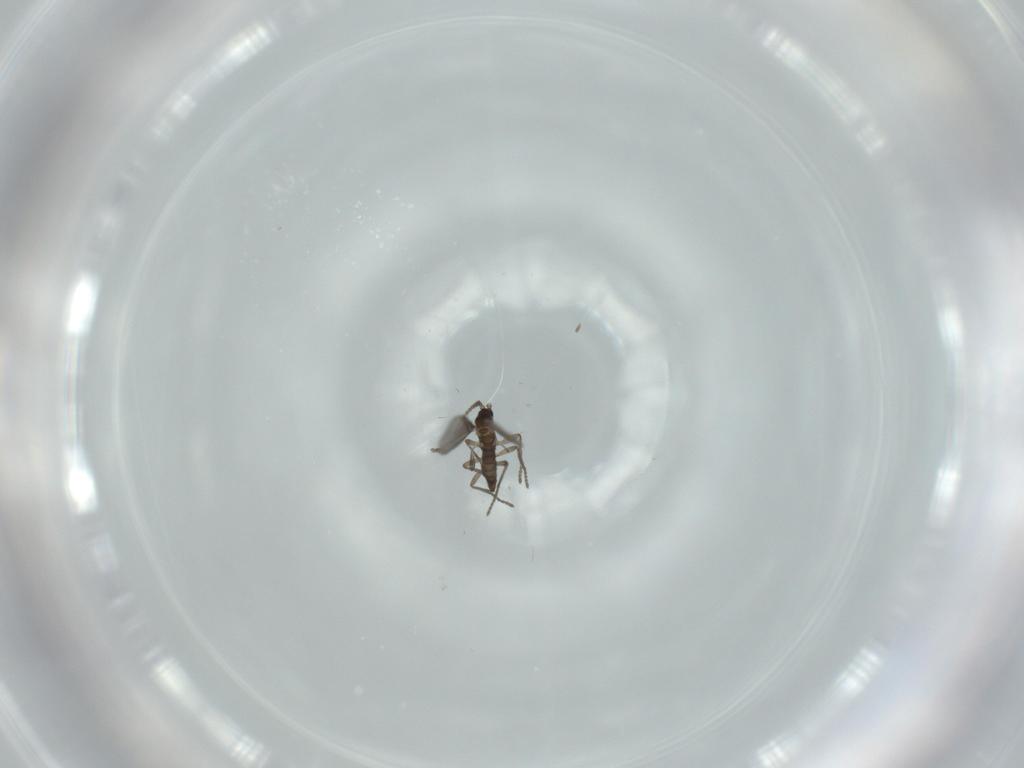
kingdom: Animalia
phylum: Arthropoda
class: Insecta
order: Diptera
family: Sciaridae
